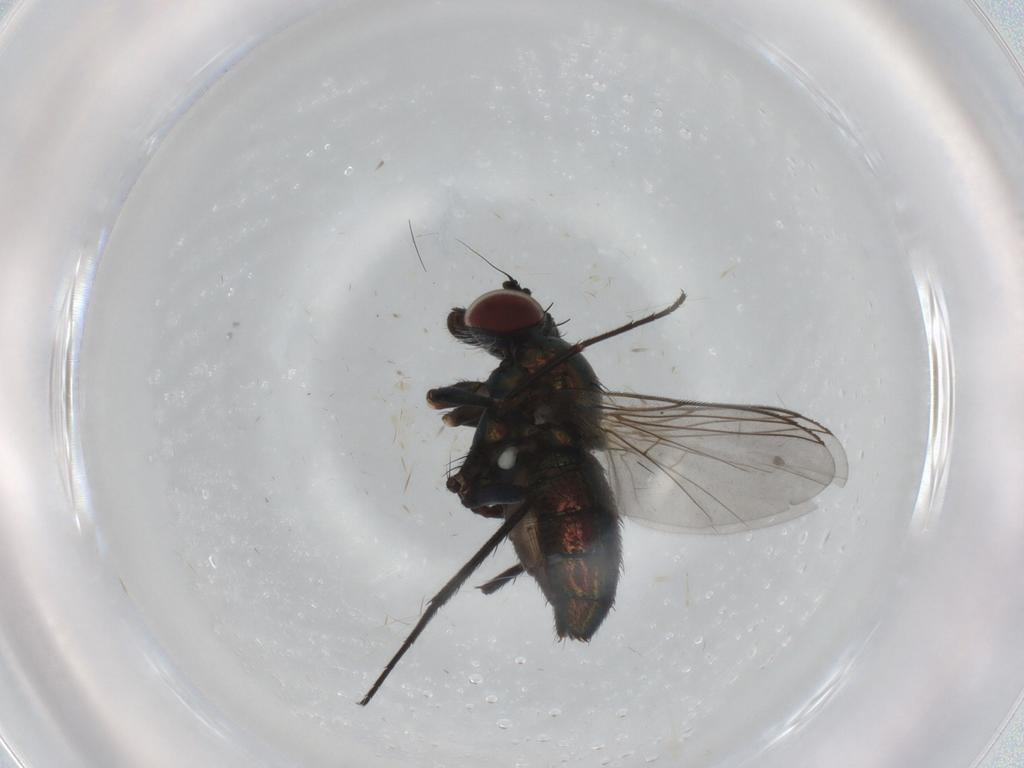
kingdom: Animalia
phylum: Arthropoda
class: Insecta
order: Diptera
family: Dolichopodidae
